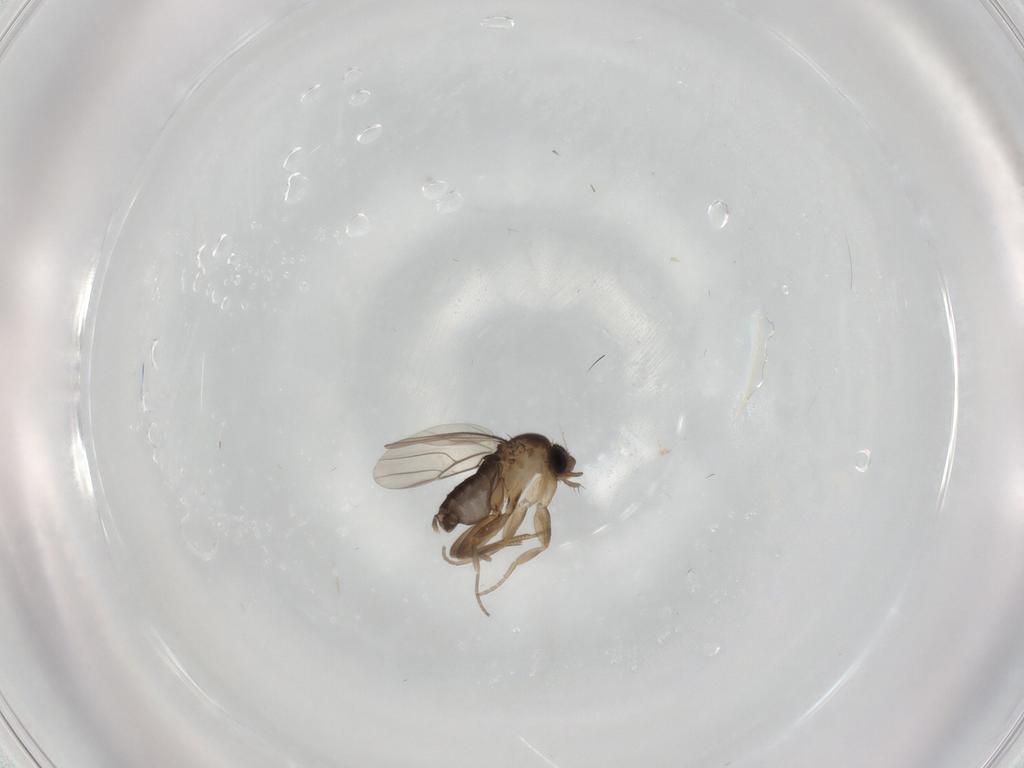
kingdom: Animalia
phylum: Arthropoda
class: Insecta
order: Diptera
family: Phoridae
